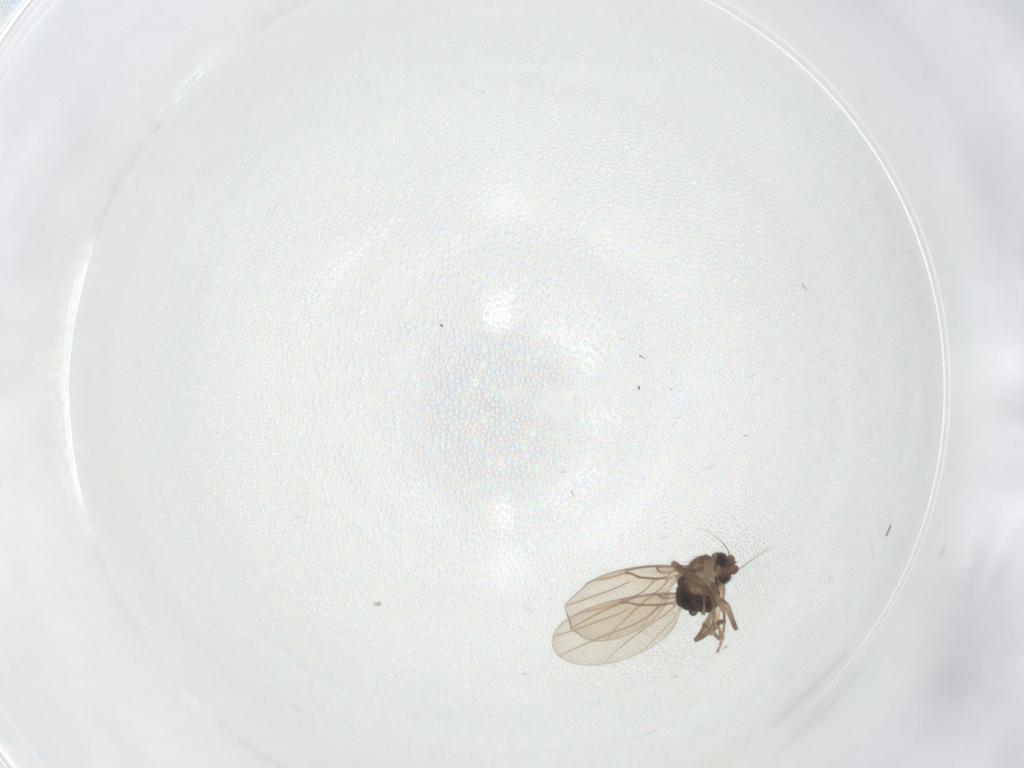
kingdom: Animalia
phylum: Arthropoda
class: Insecta
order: Diptera
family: Phoridae
